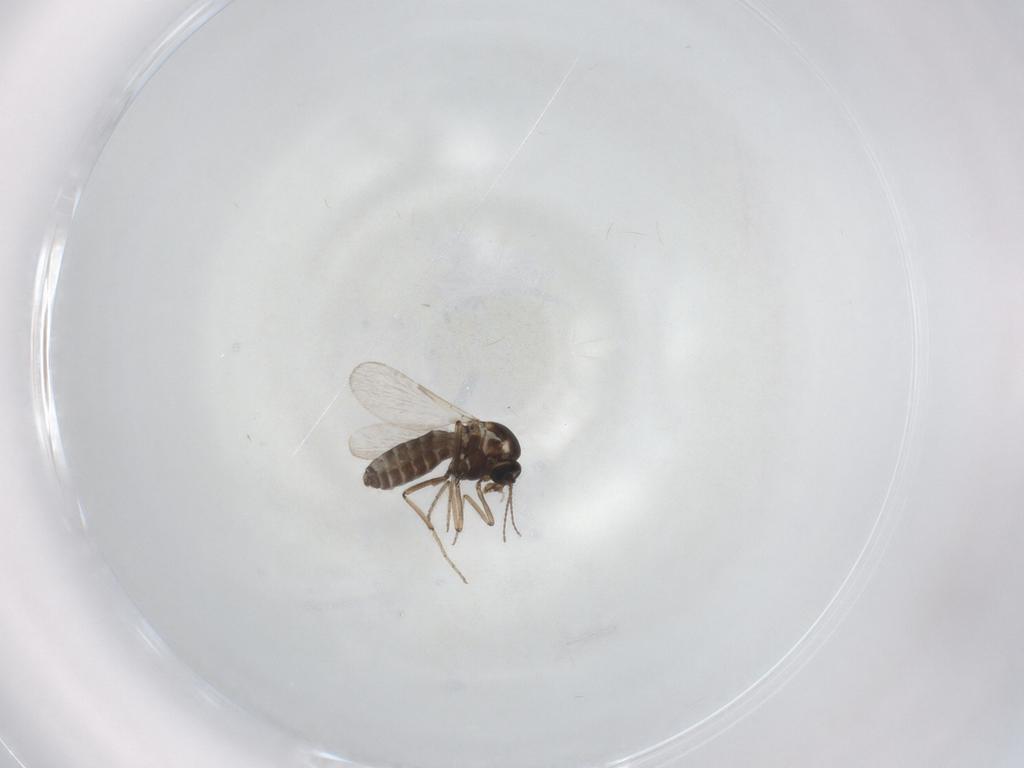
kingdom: Animalia
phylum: Arthropoda
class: Insecta
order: Diptera
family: Ceratopogonidae
